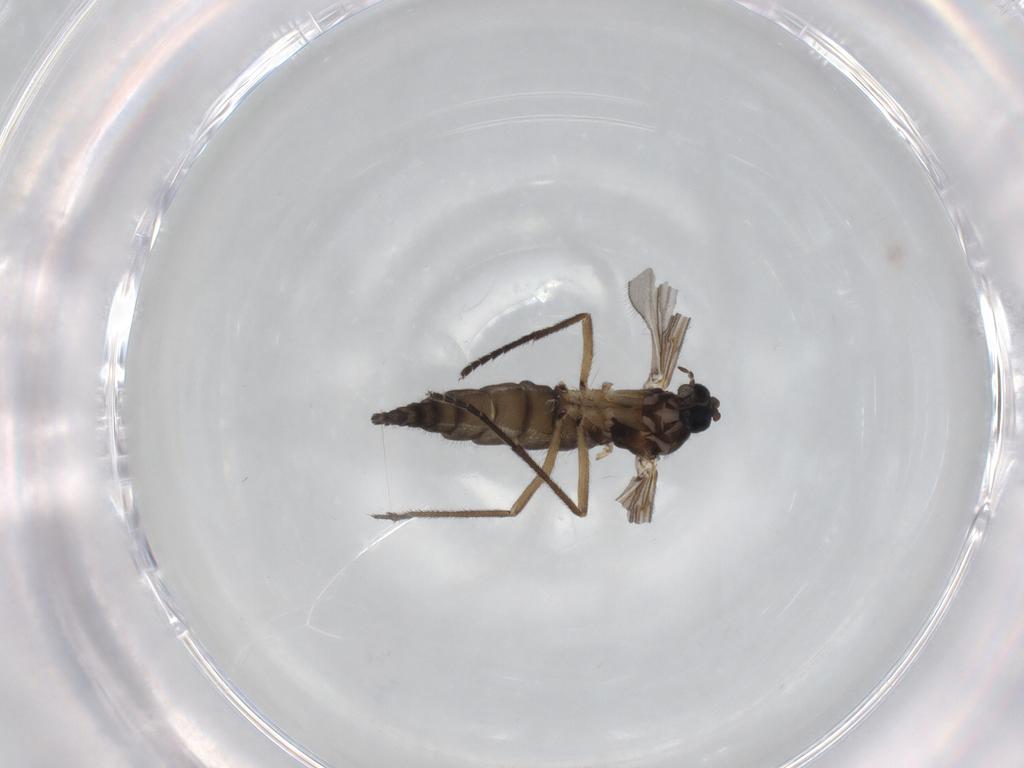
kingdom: Animalia
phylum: Arthropoda
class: Insecta
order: Diptera
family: Sciaridae
